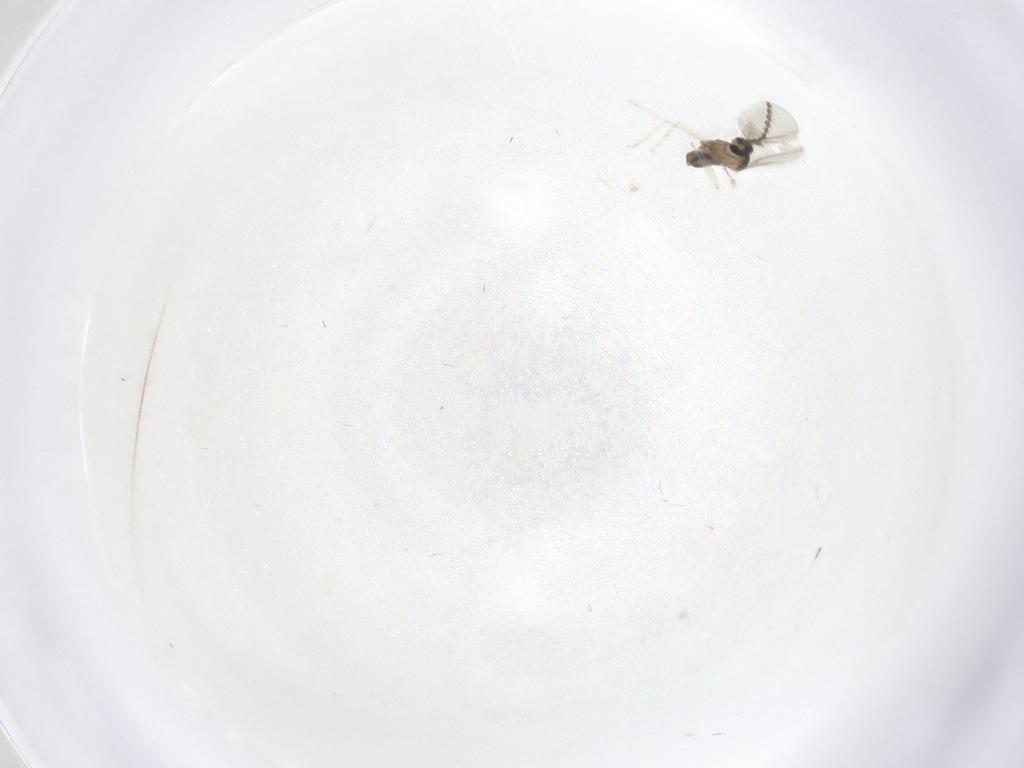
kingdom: Animalia
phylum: Arthropoda
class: Insecta
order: Diptera
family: Cecidomyiidae
